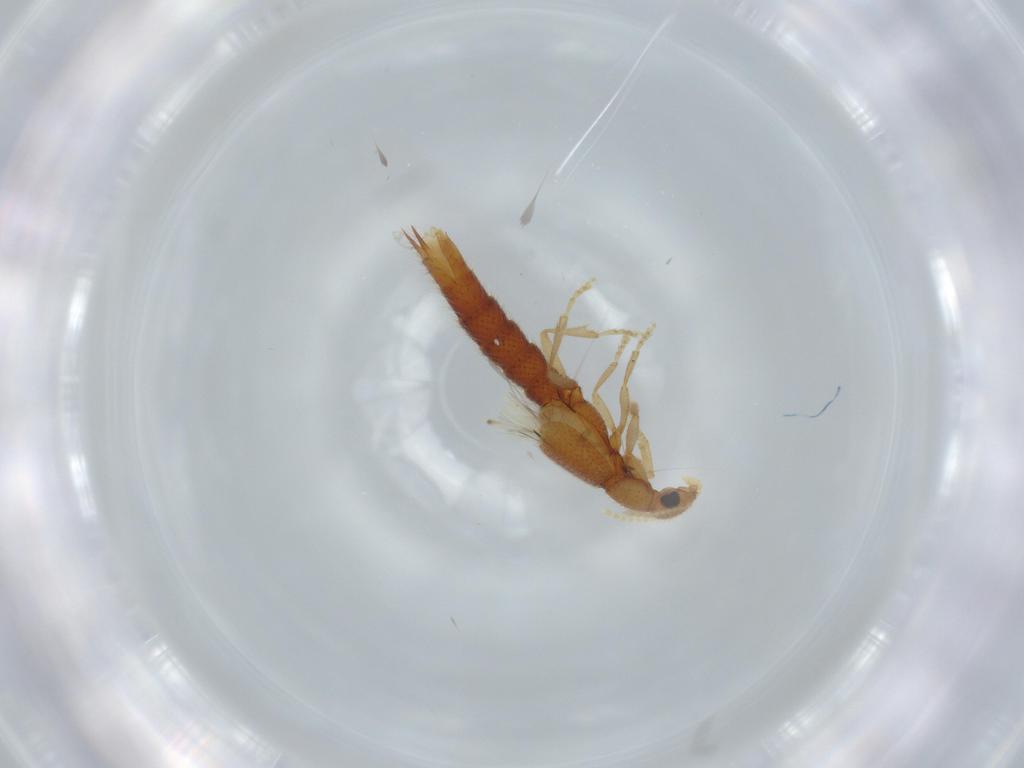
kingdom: Animalia
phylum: Arthropoda
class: Insecta
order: Coleoptera
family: Staphylinidae
